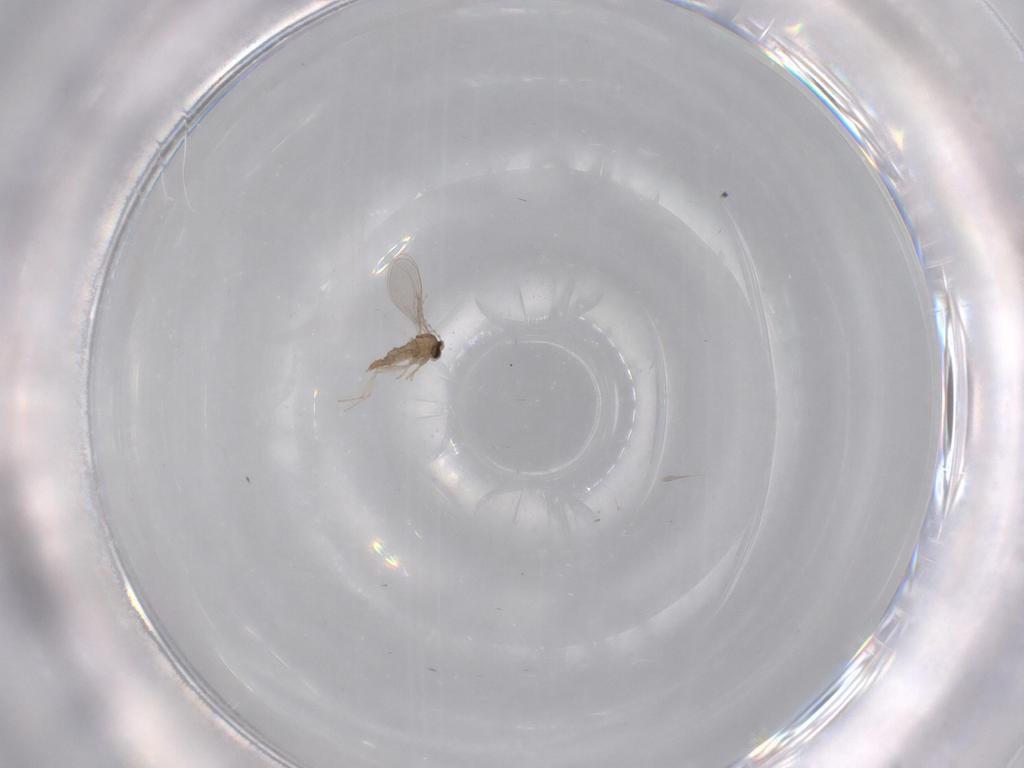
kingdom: Animalia
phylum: Arthropoda
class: Insecta
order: Diptera
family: Cecidomyiidae
